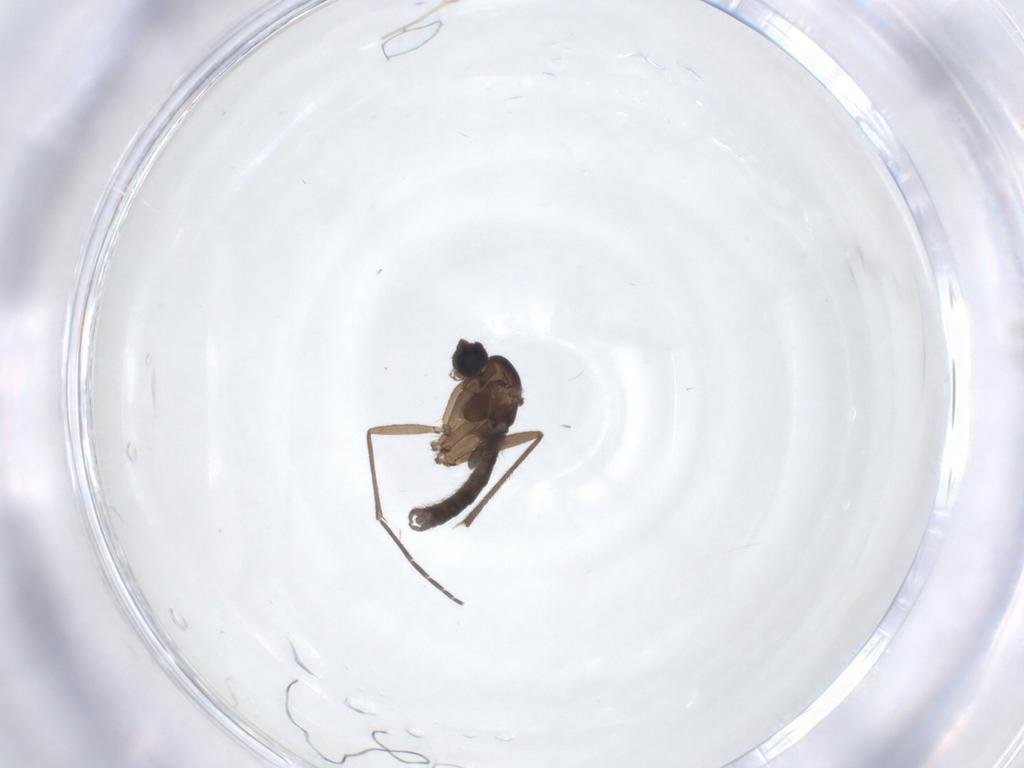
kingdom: Animalia
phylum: Arthropoda
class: Insecta
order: Diptera
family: Sciaridae
